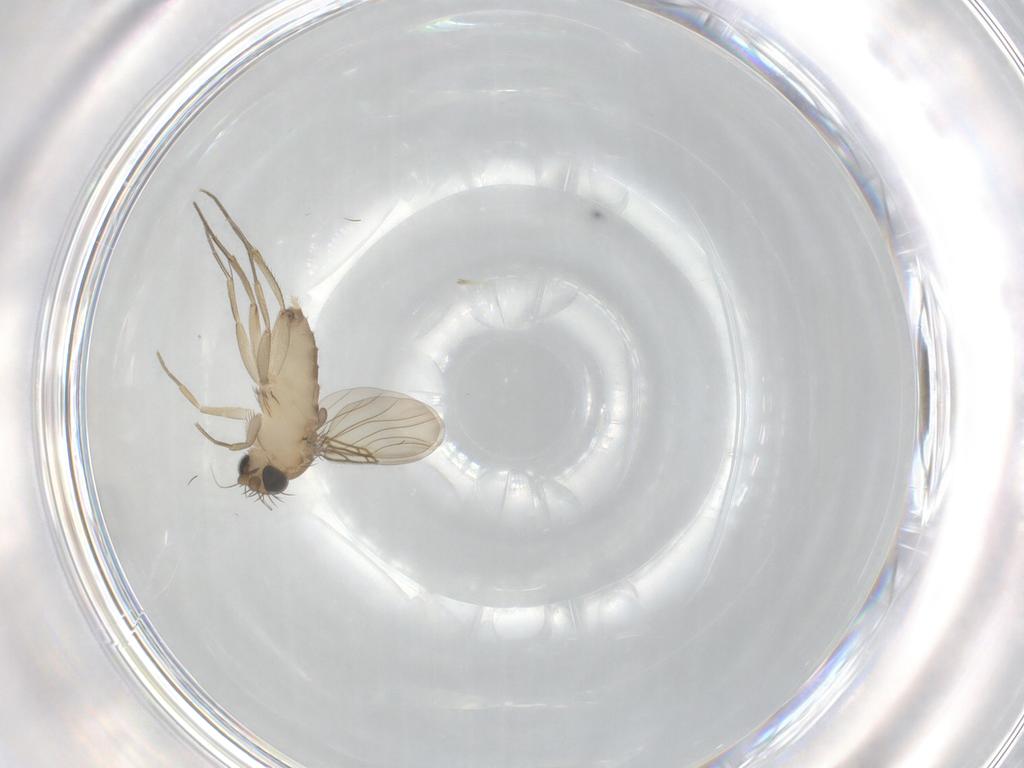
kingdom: Animalia
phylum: Arthropoda
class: Insecta
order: Diptera
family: Phoridae
